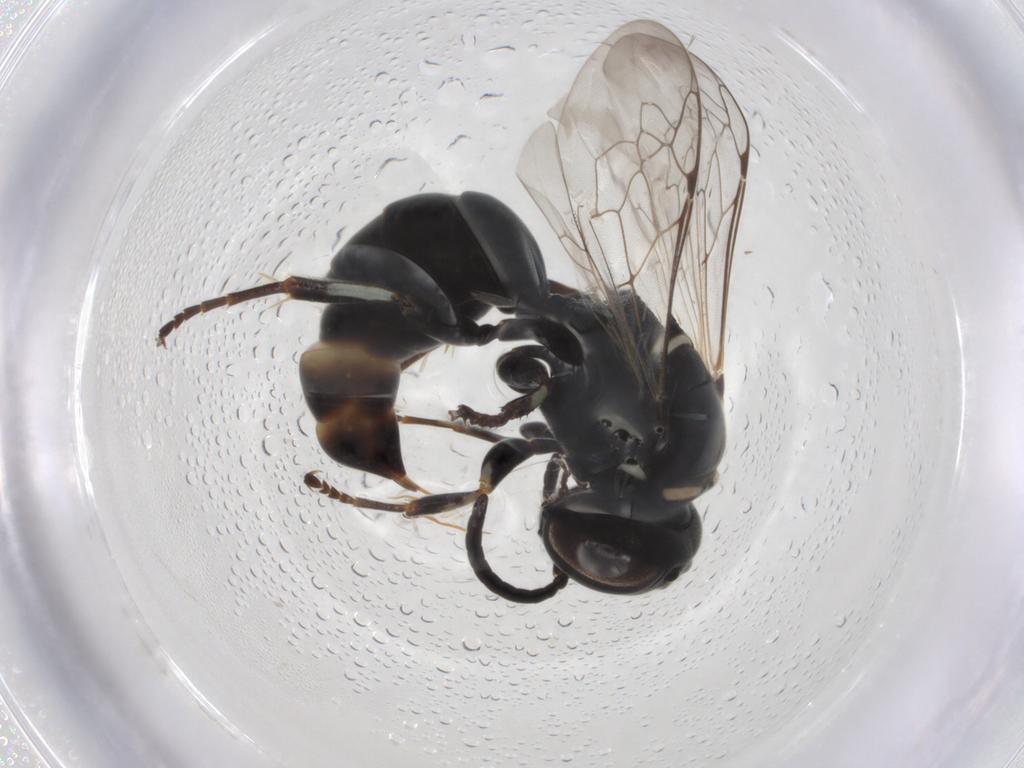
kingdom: Animalia
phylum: Arthropoda
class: Insecta
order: Hymenoptera
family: Crabronidae
